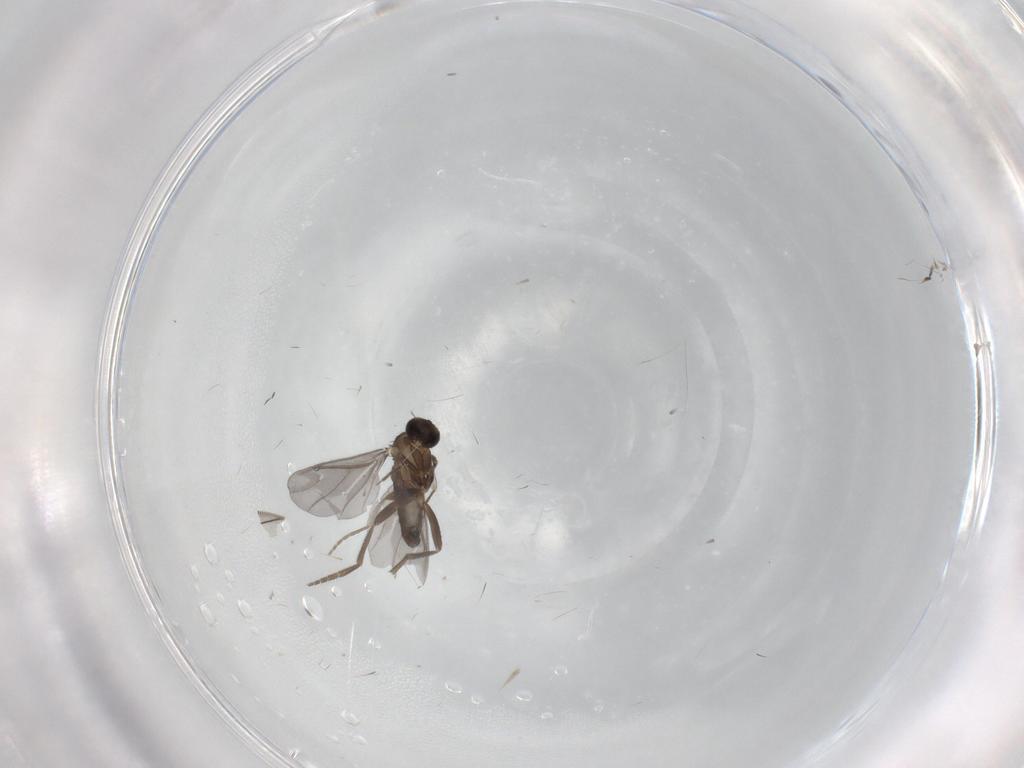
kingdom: Animalia
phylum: Arthropoda
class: Insecta
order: Diptera
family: Phoridae
